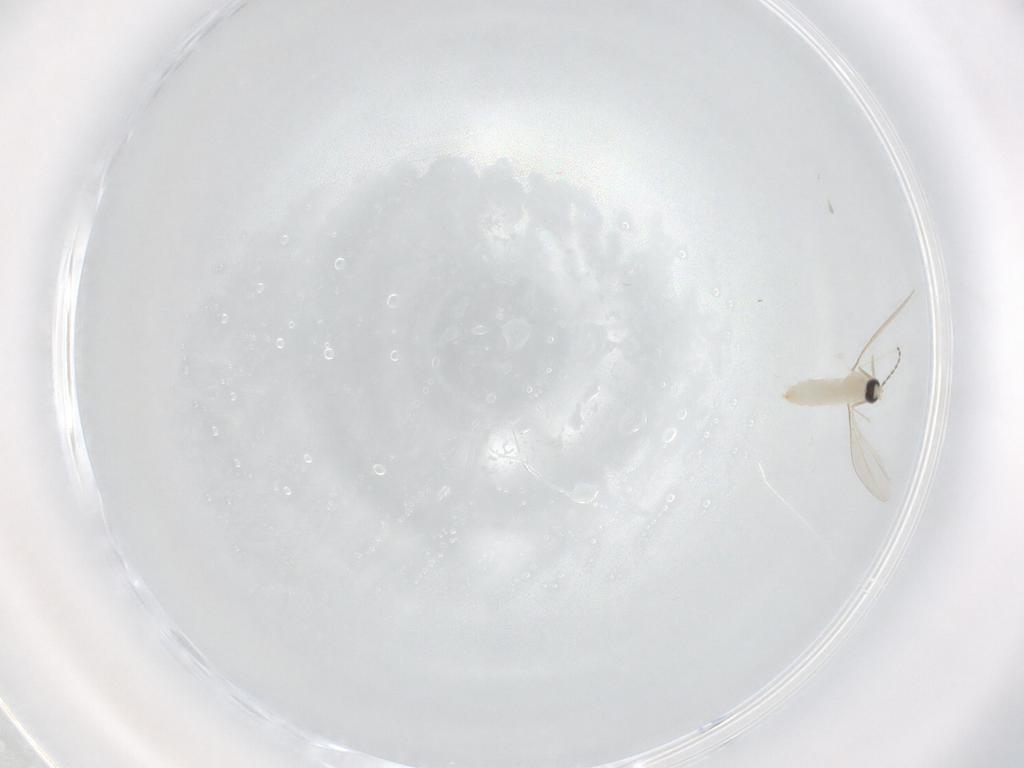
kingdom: Animalia
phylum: Arthropoda
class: Insecta
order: Diptera
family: Cecidomyiidae
